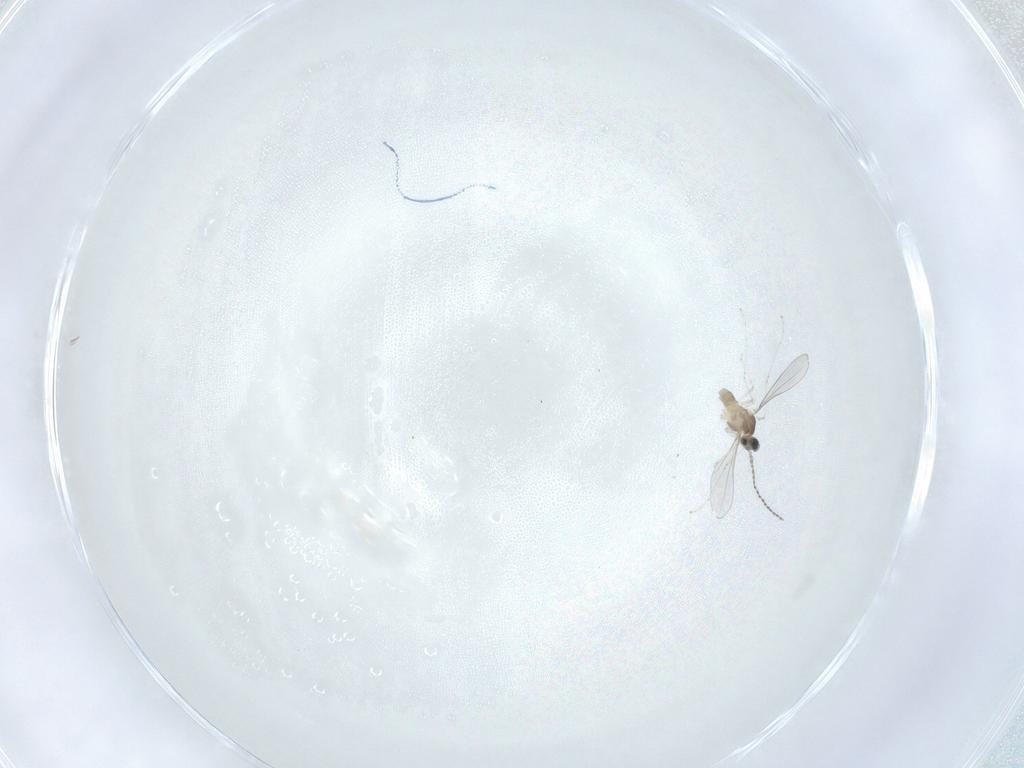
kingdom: Animalia
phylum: Arthropoda
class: Insecta
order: Diptera
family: Cecidomyiidae
